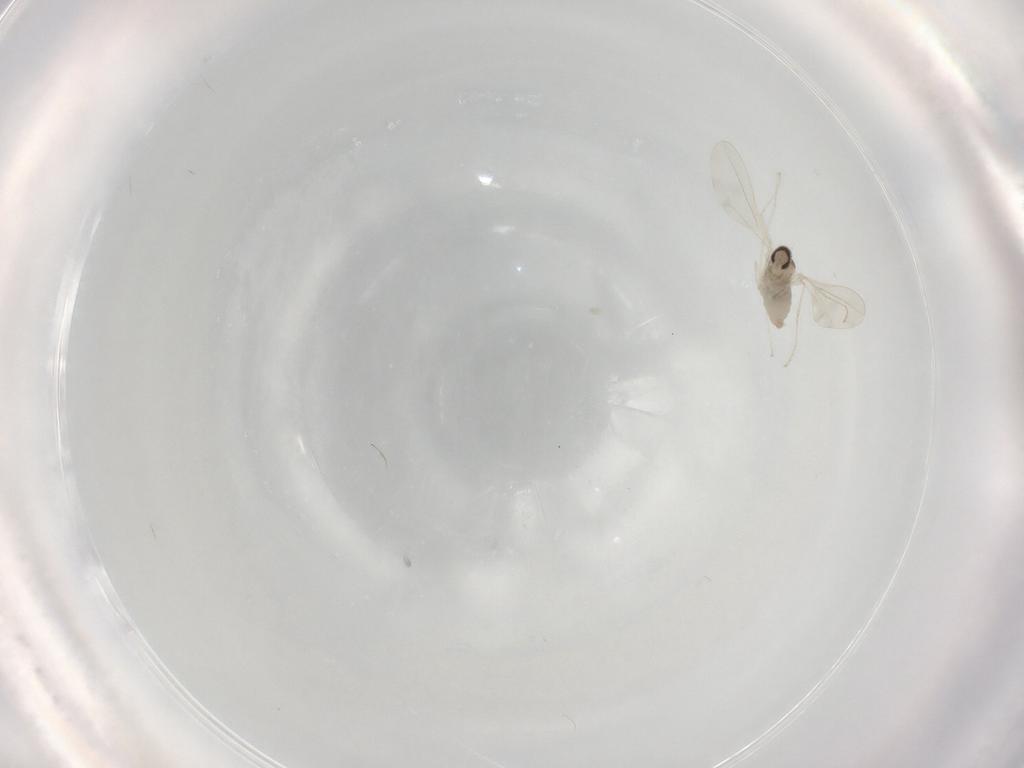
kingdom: Animalia
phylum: Arthropoda
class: Insecta
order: Diptera
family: Cecidomyiidae
